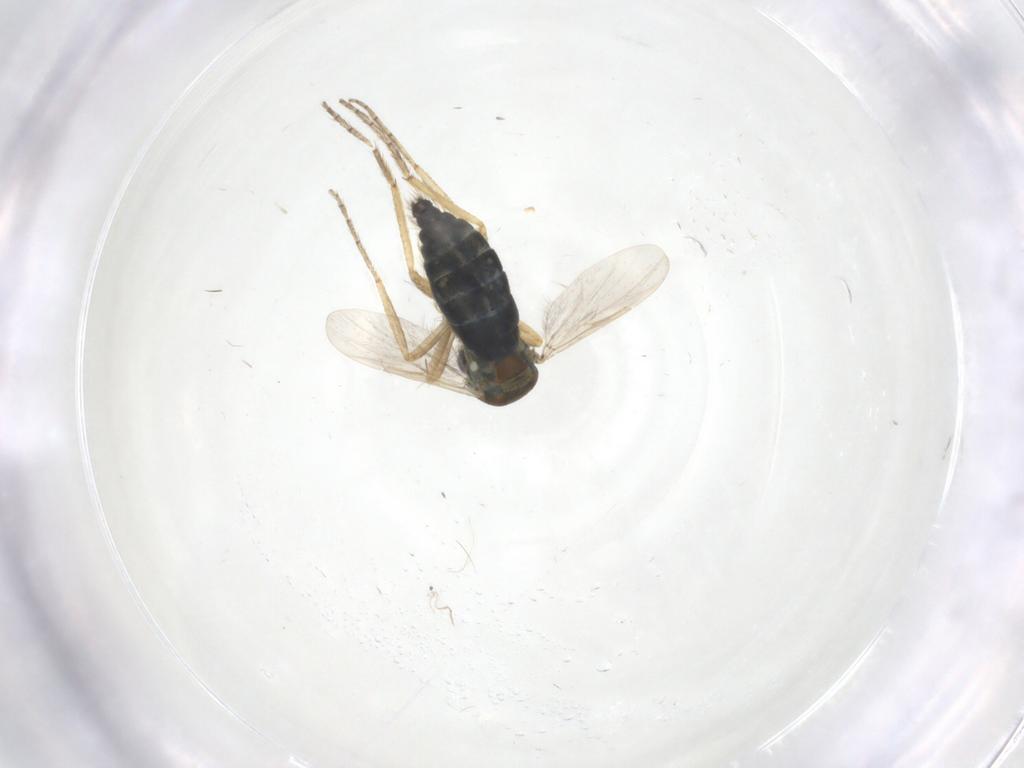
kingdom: Animalia
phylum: Arthropoda
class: Insecta
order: Diptera
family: Ceratopogonidae
